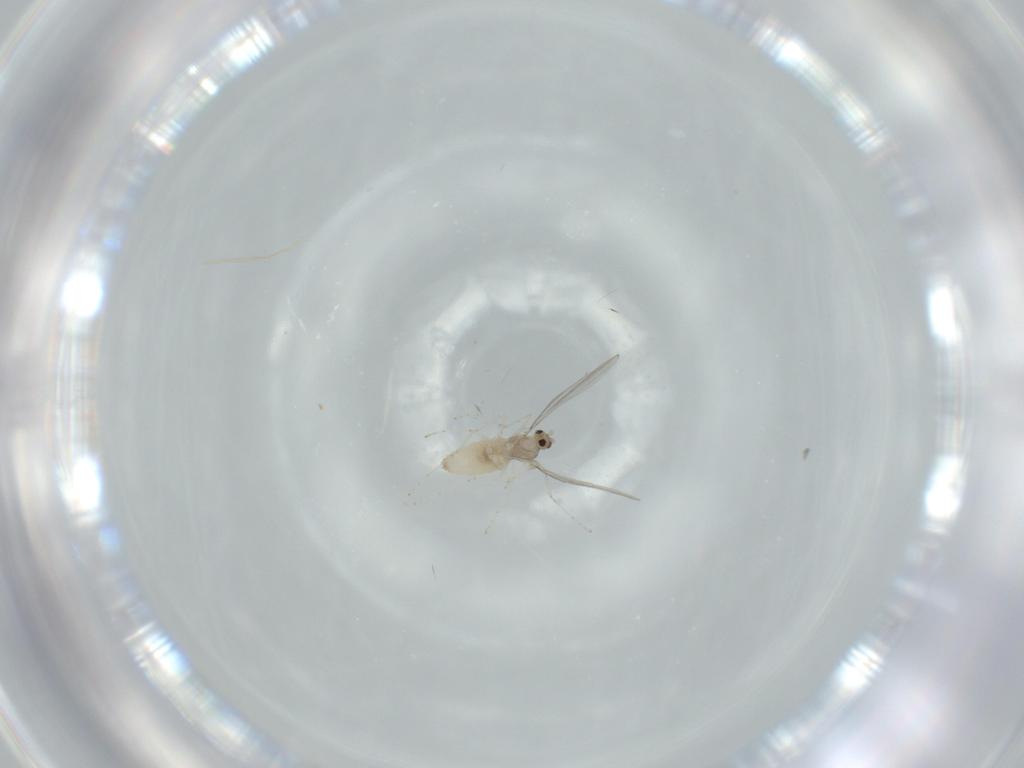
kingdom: Animalia
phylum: Arthropoda
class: Insecta
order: Diptera
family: Cecidomyiidae
